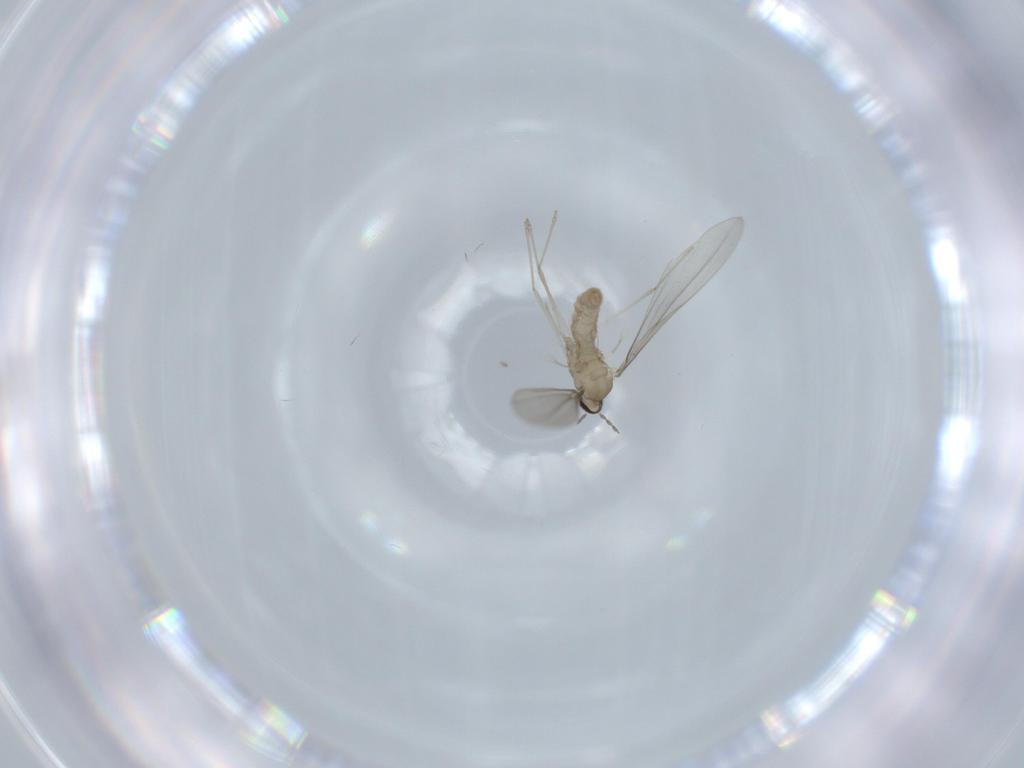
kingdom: Animalia
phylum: Arthropoda
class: Insecta
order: Diptera
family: Cecidomyiidae
